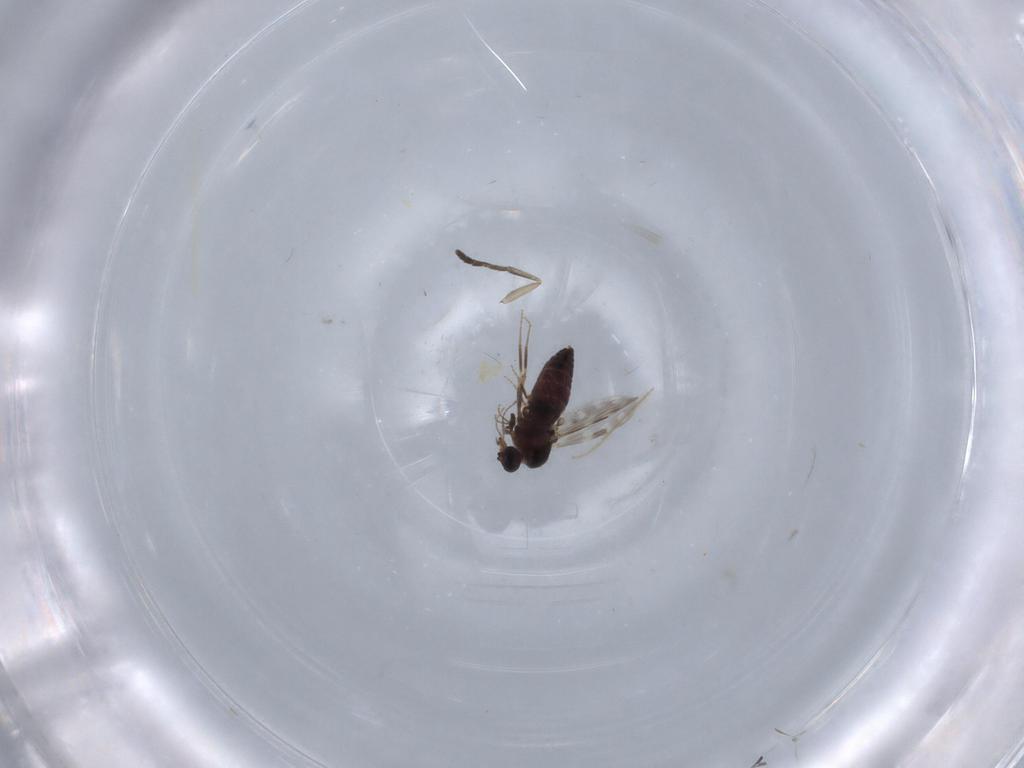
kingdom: Animalia
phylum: Arthropoda
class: Insecta
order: Diptera
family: Ceratopogonidae
